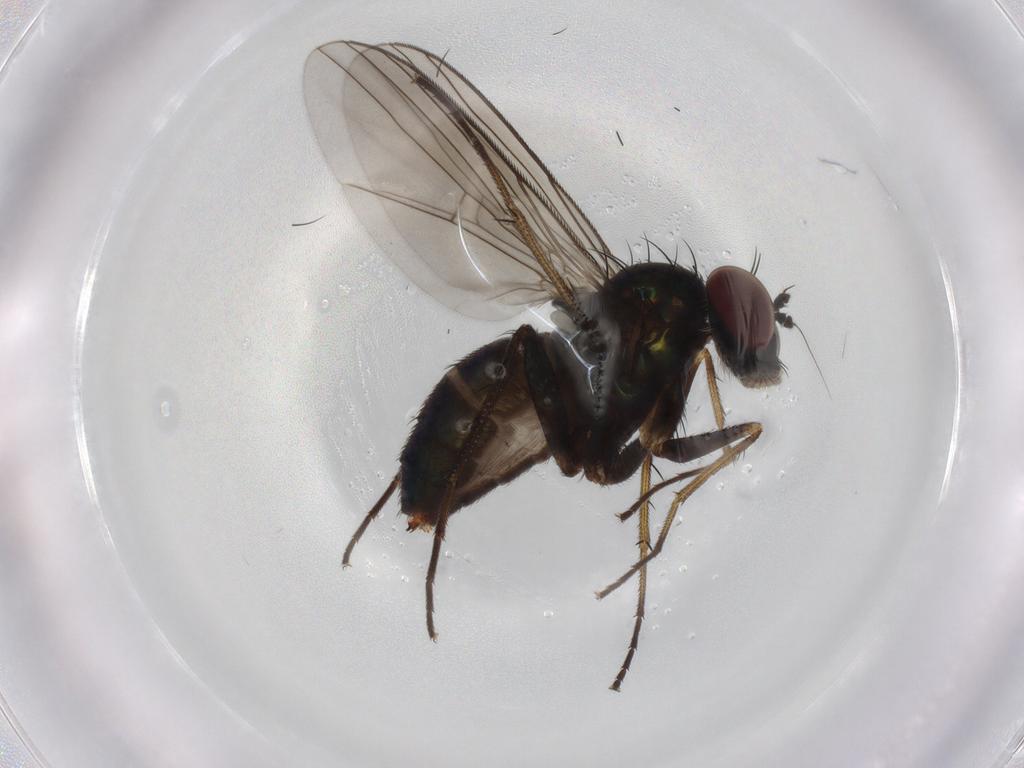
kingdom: Animalia
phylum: Arthropoda
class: Insecta
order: Diptera
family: Dolichopodidae
